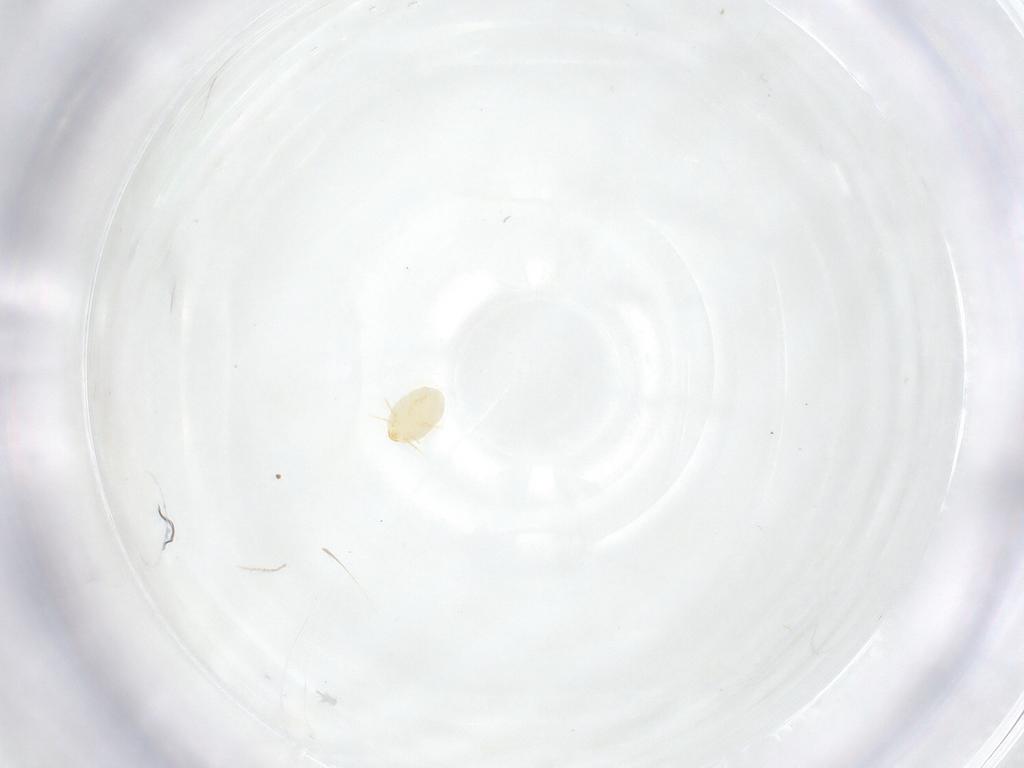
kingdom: Animalia
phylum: Arthropoda
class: Arachnida
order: Trombidiformes
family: Microtrombidiidae
